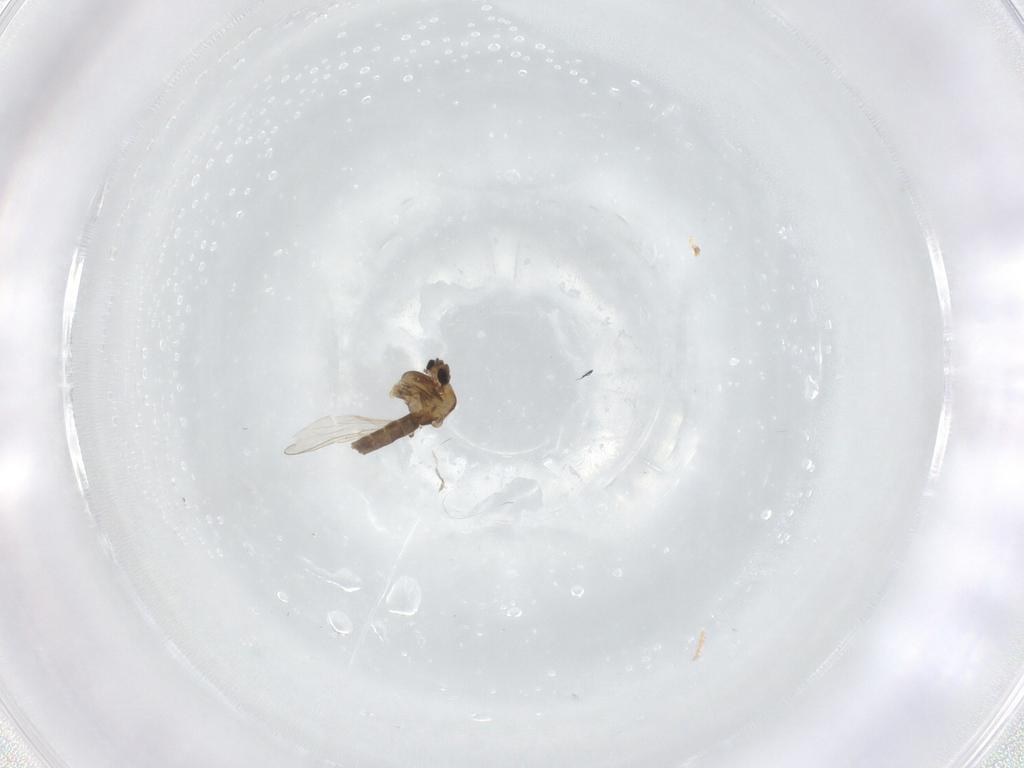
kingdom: Animalia
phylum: Arthropoda
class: Insecta
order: Diptera
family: Chironomidae
